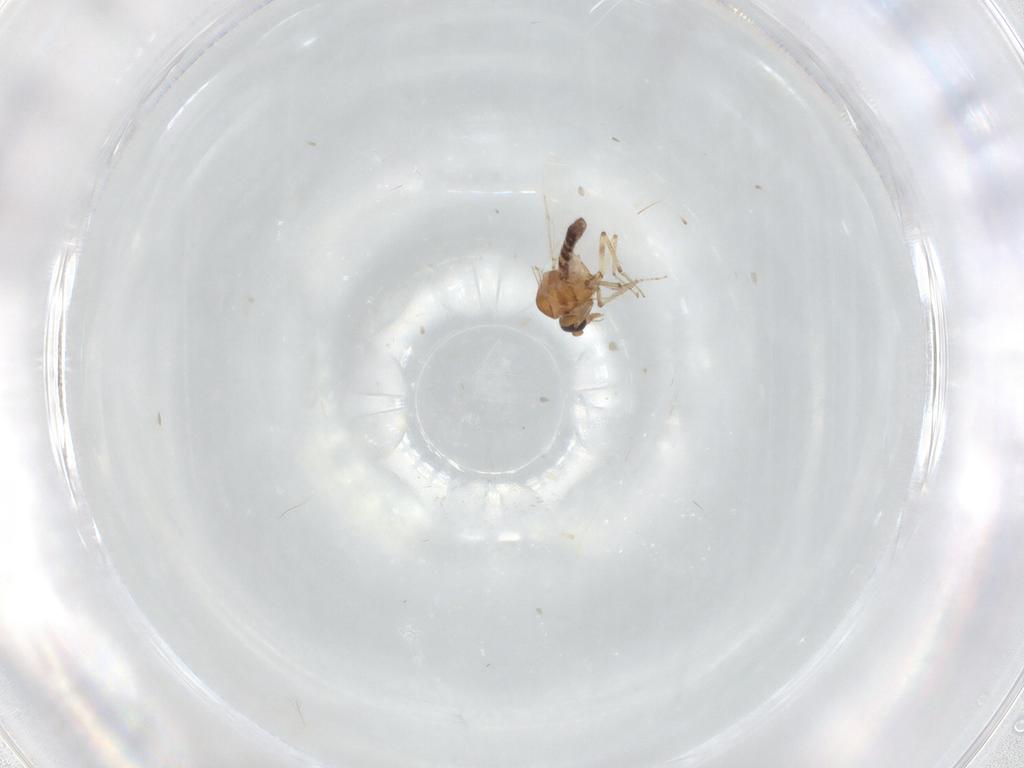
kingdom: Animalia
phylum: Arthropoda
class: Insecta
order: Diptera
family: Ceratopogonidae
